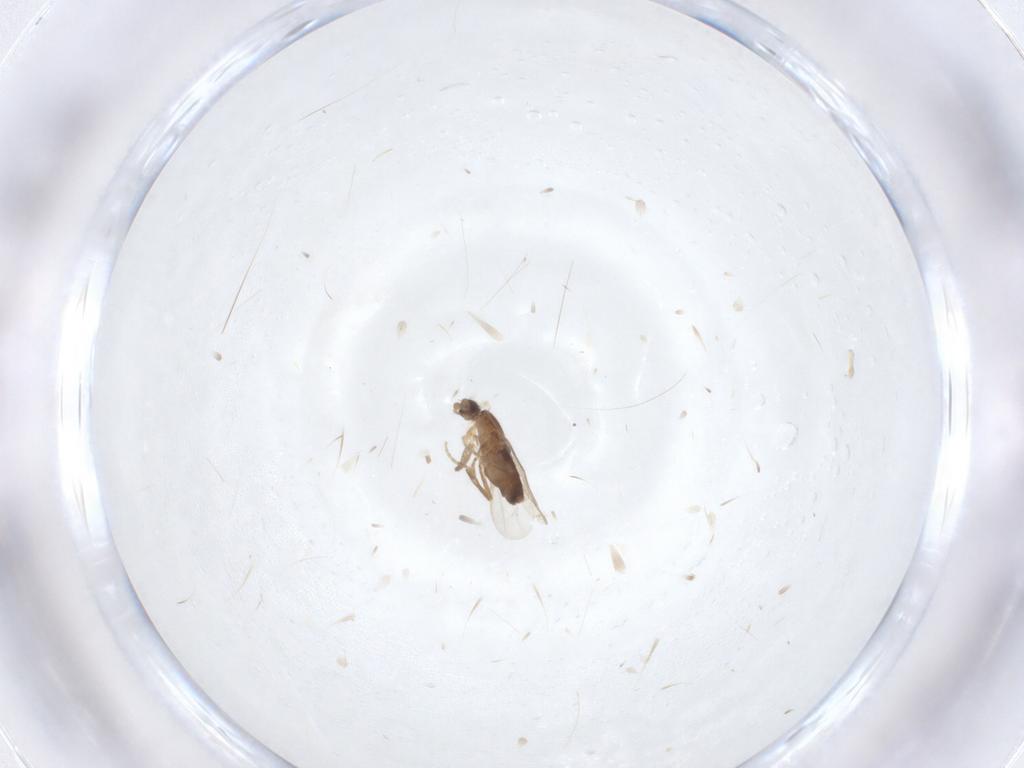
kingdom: Animalia
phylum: Arthropoda
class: Insecta
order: Diptera
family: Phoridae
